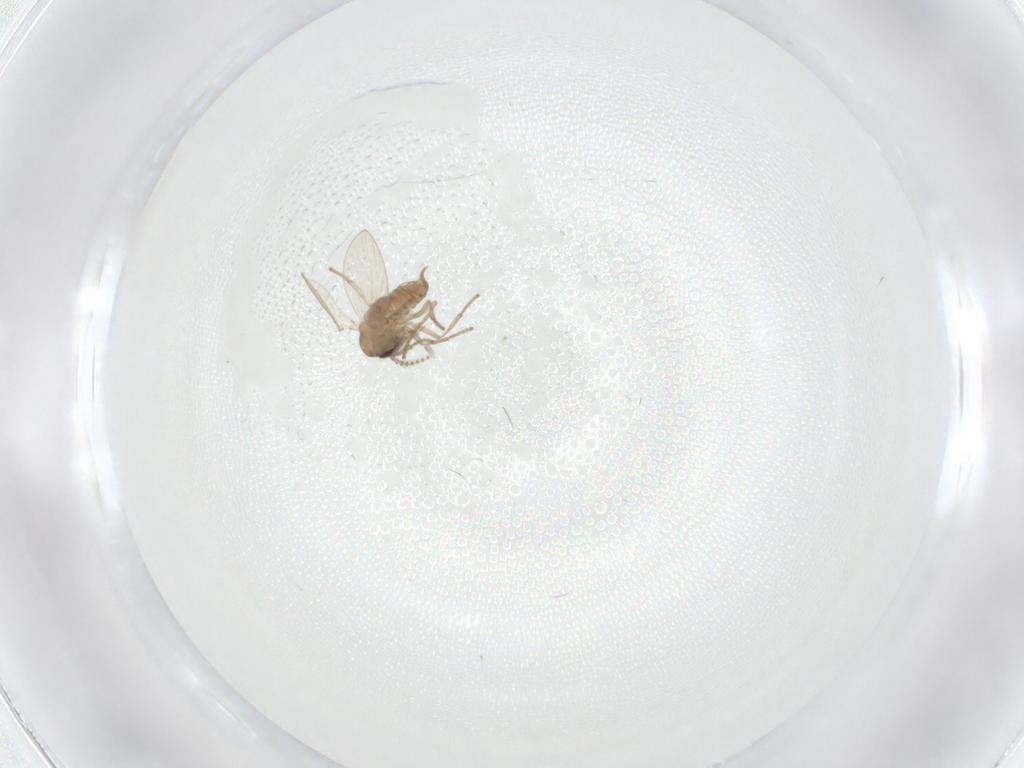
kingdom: Animalia
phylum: Arthropoda
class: Insecta
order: Diptera
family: Psychodidae
